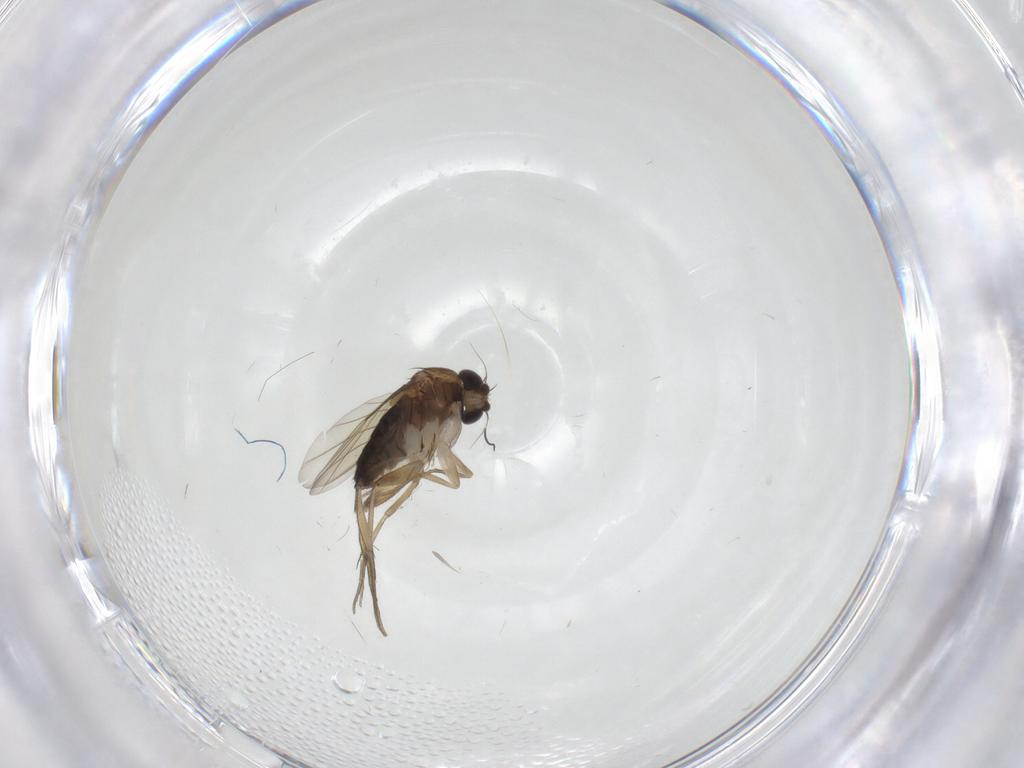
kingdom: Animalia
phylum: Arthropoda
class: Insecta
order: Diptera
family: Phoridae
